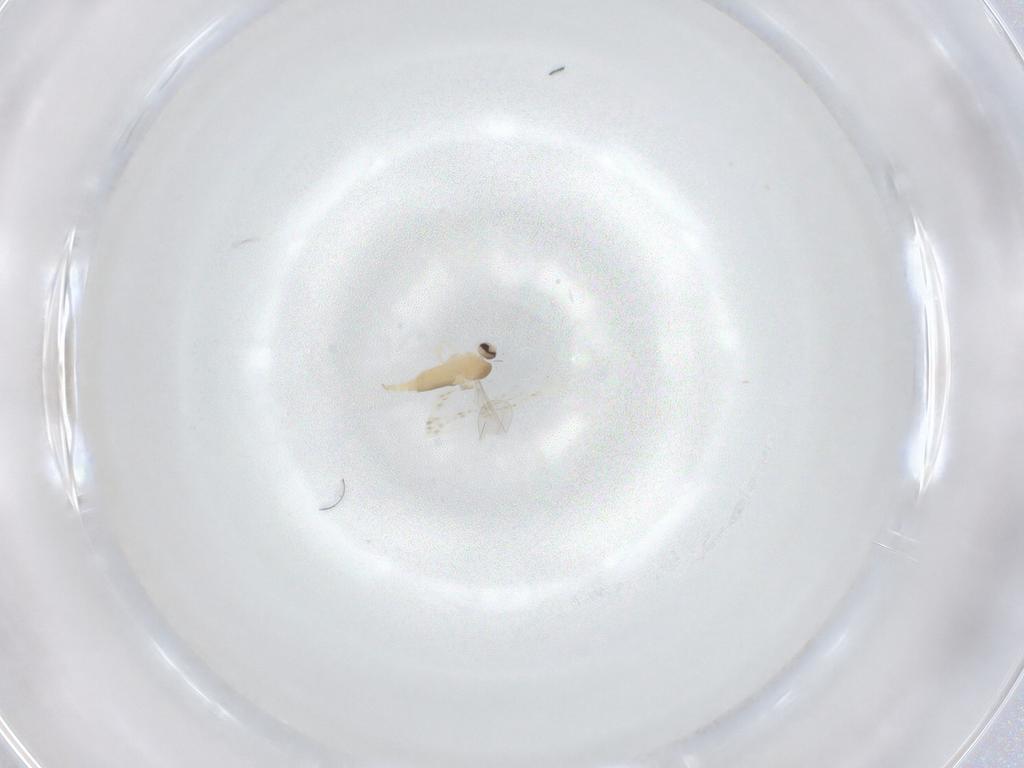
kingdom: Animalia
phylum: Arthropoda
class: Insecta
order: Diptera
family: Cecidomyiidae
